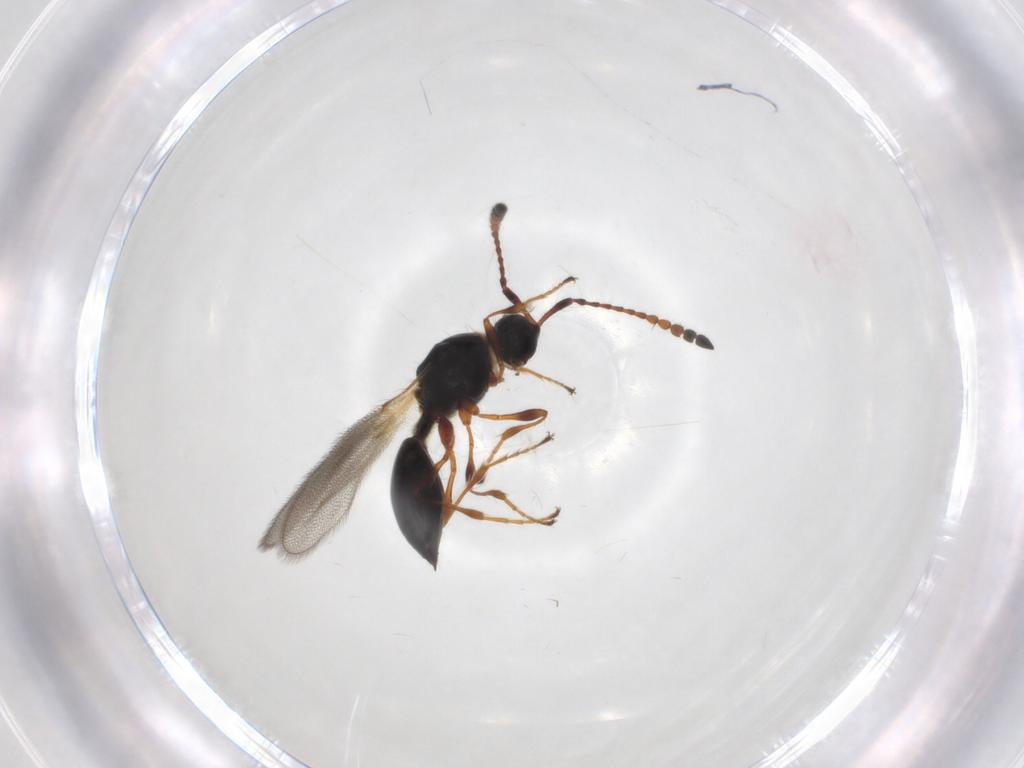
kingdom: Animalia
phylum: Arthropoda
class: Insecta
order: Hymenoptera
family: Diapriidae
